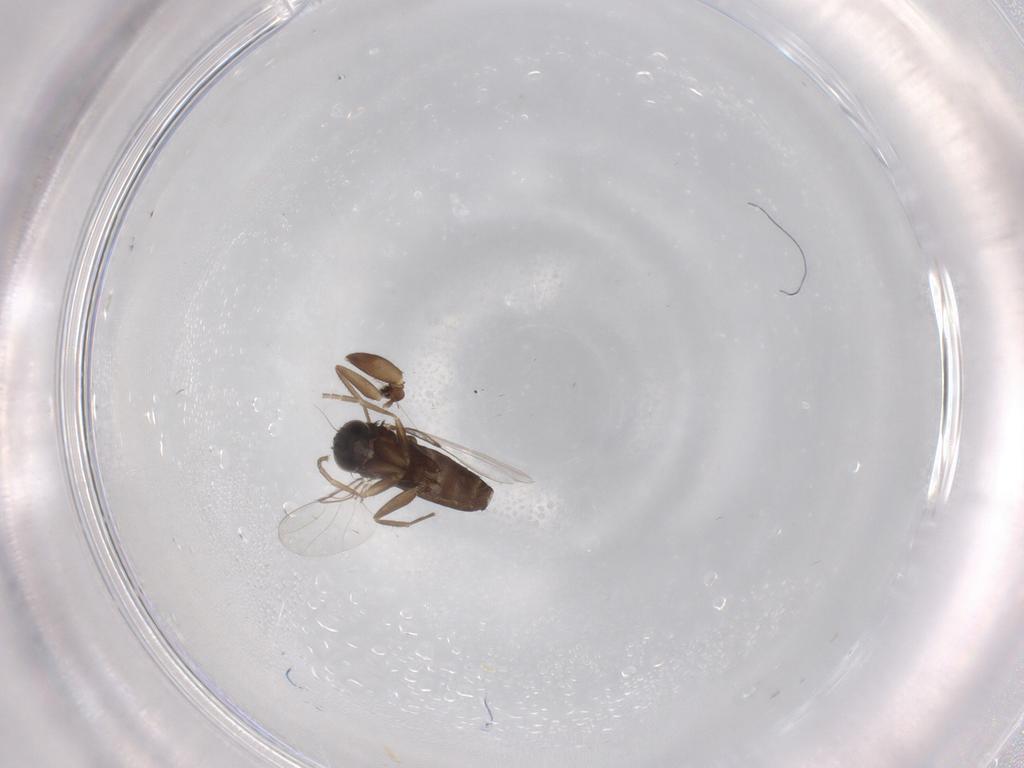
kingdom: Animalia
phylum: Arthropoda
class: Insecta
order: Diptera
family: Phoridae
